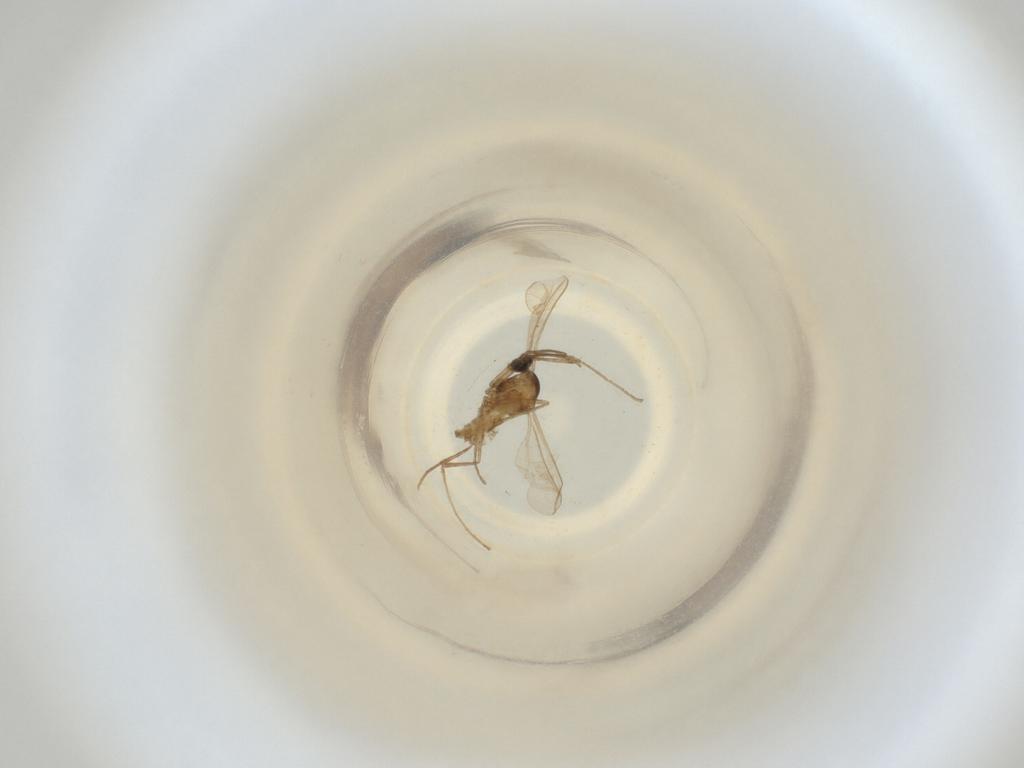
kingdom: Animalia
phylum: Arthropoda
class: Insecta
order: Diptera
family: Cecidomyiidae
